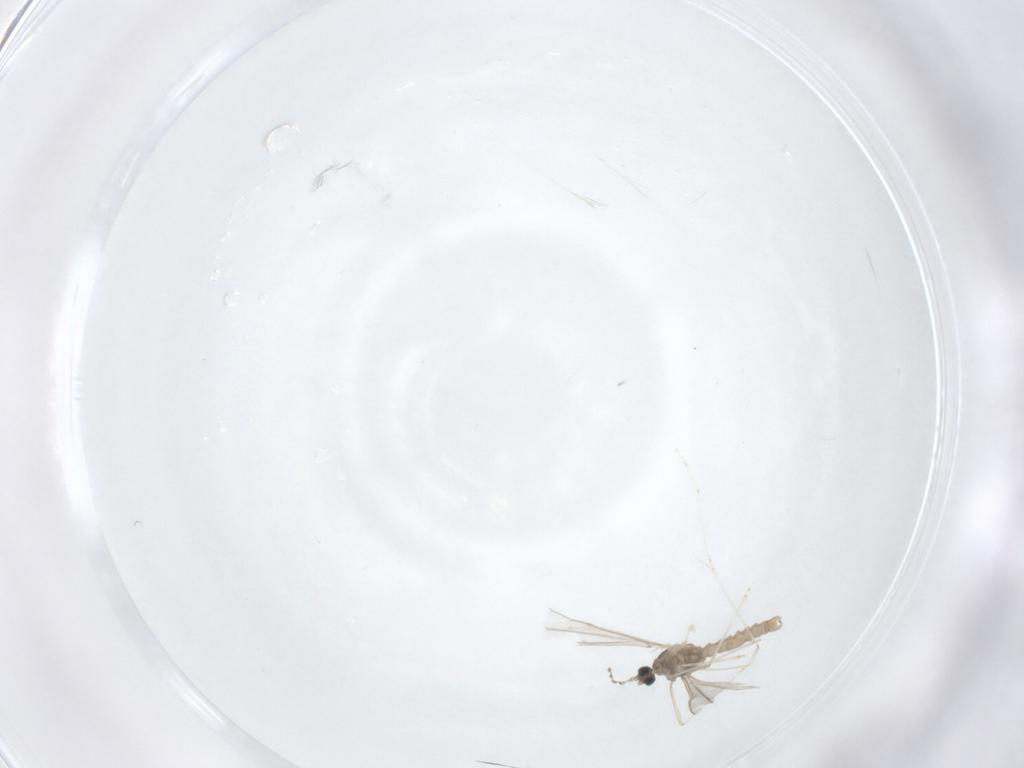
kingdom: Animalia
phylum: Arthropoda
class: Insecta
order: Diptera
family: Cecidomyiidae
